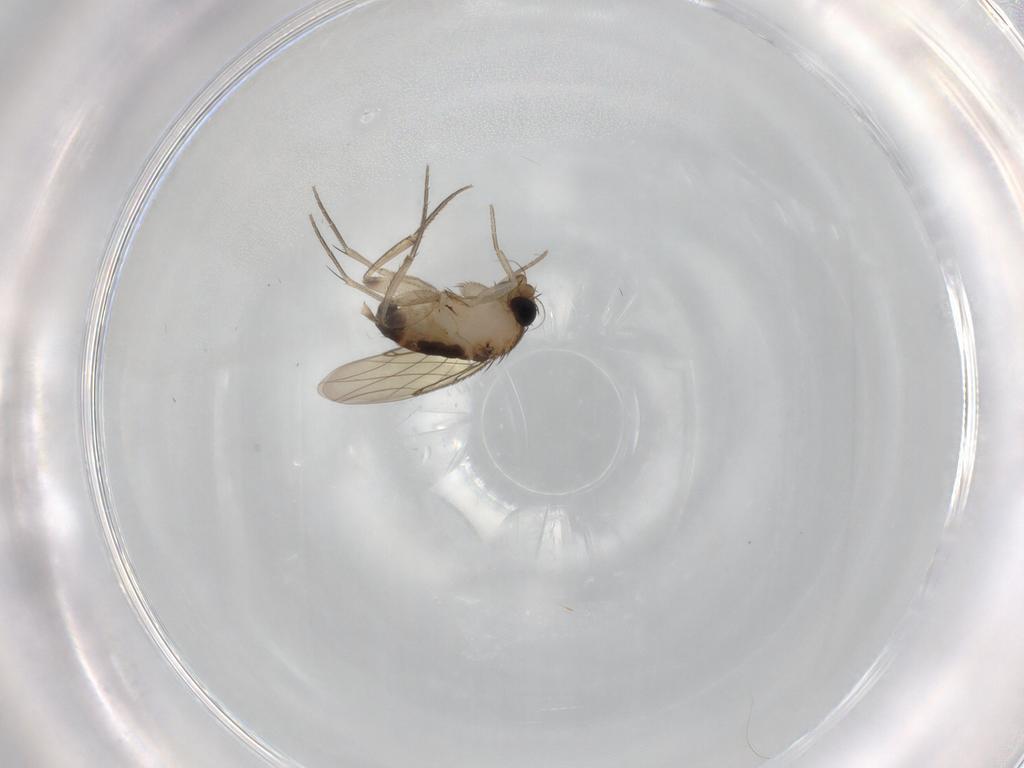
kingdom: Animalia
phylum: Arthropoda
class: Insecta
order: Diptera
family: Phoridae
